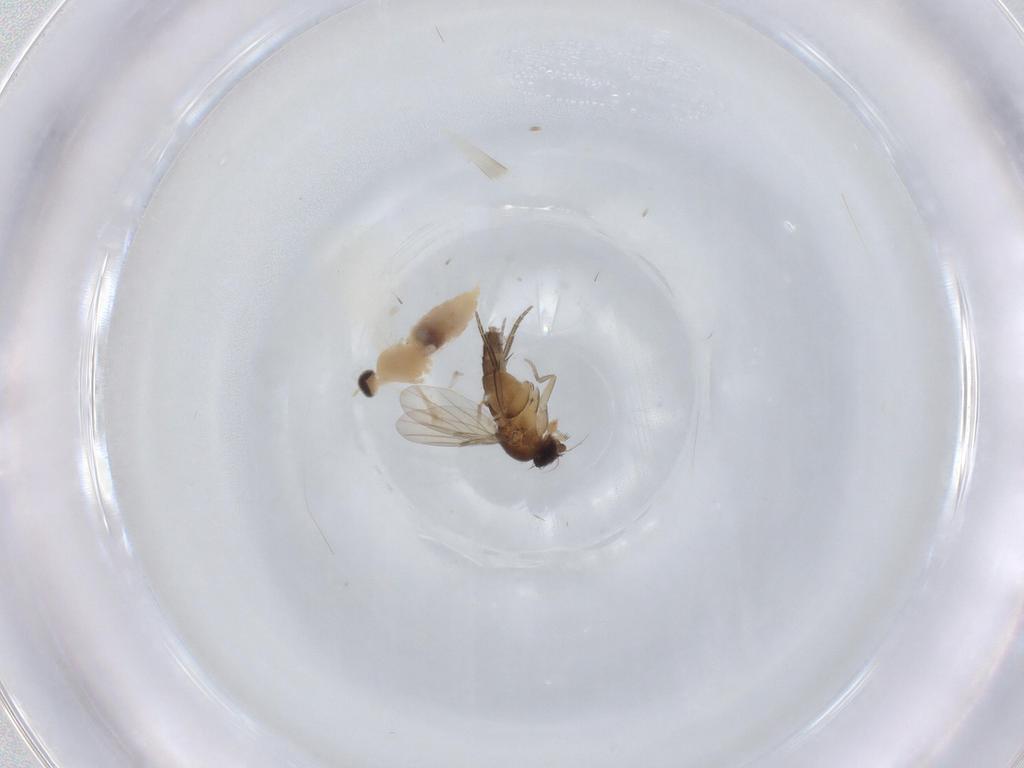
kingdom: Animalia
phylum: Arthropoda
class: Insecta
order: Diptera
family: Cecidomyiidae
